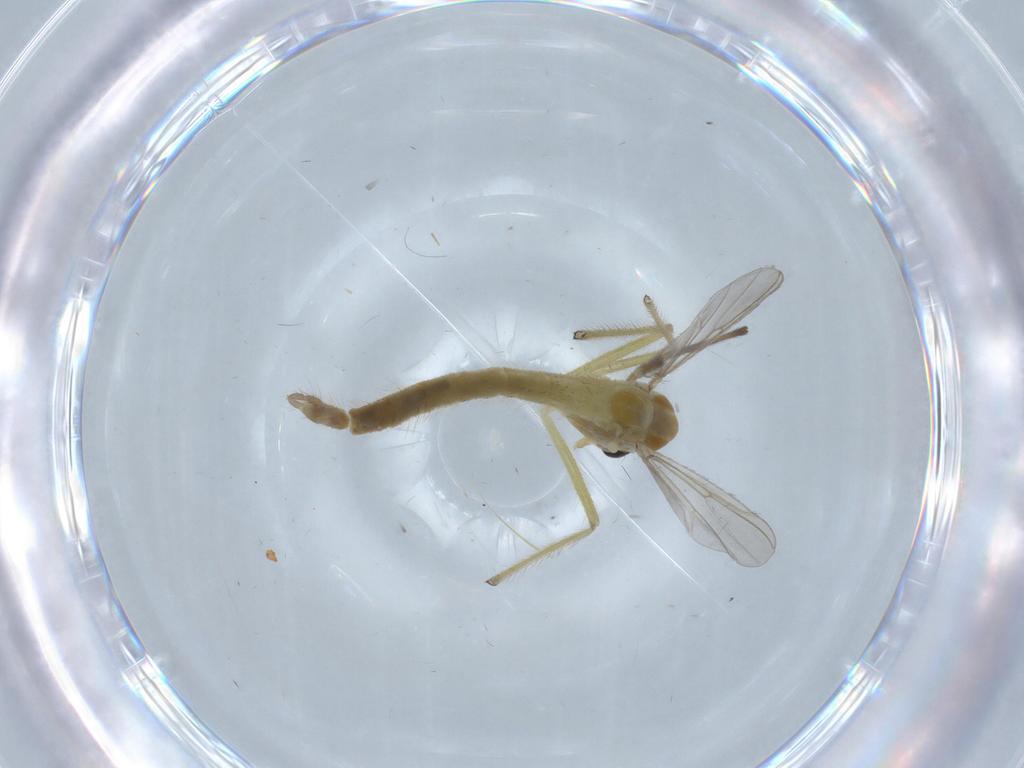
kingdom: Animalia
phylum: Arthropoda
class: Insecta
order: Diptera
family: Chironomidae
